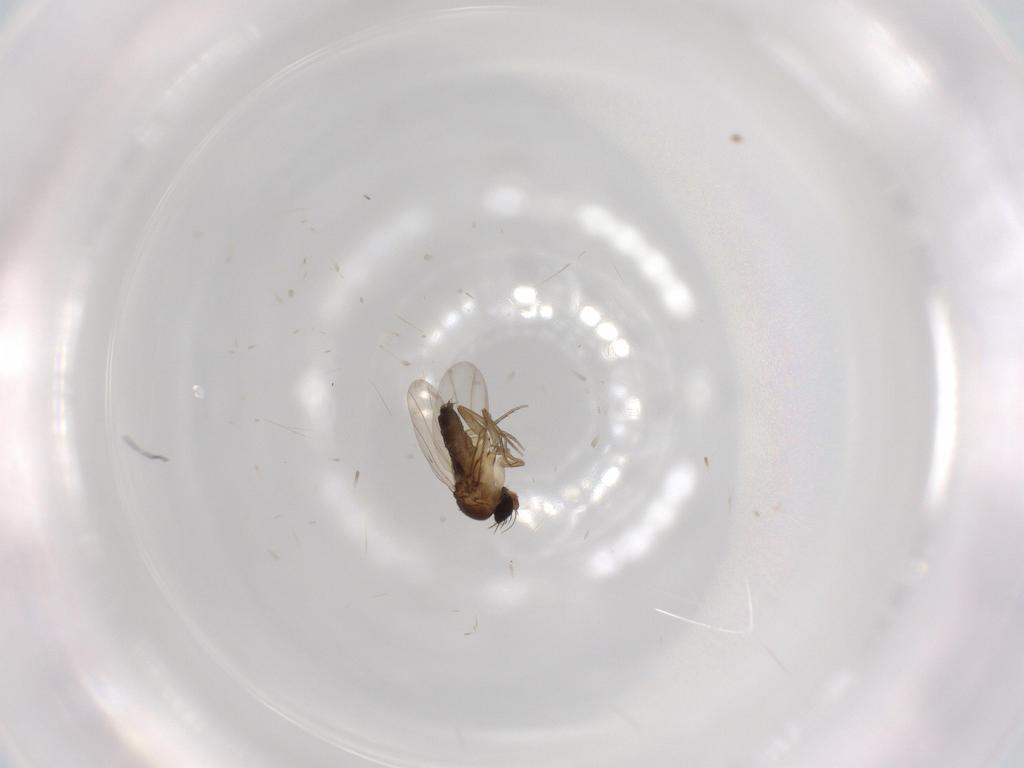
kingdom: Animalia
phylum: Arthropoda
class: Insecta
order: Diptera
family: Phoridae
